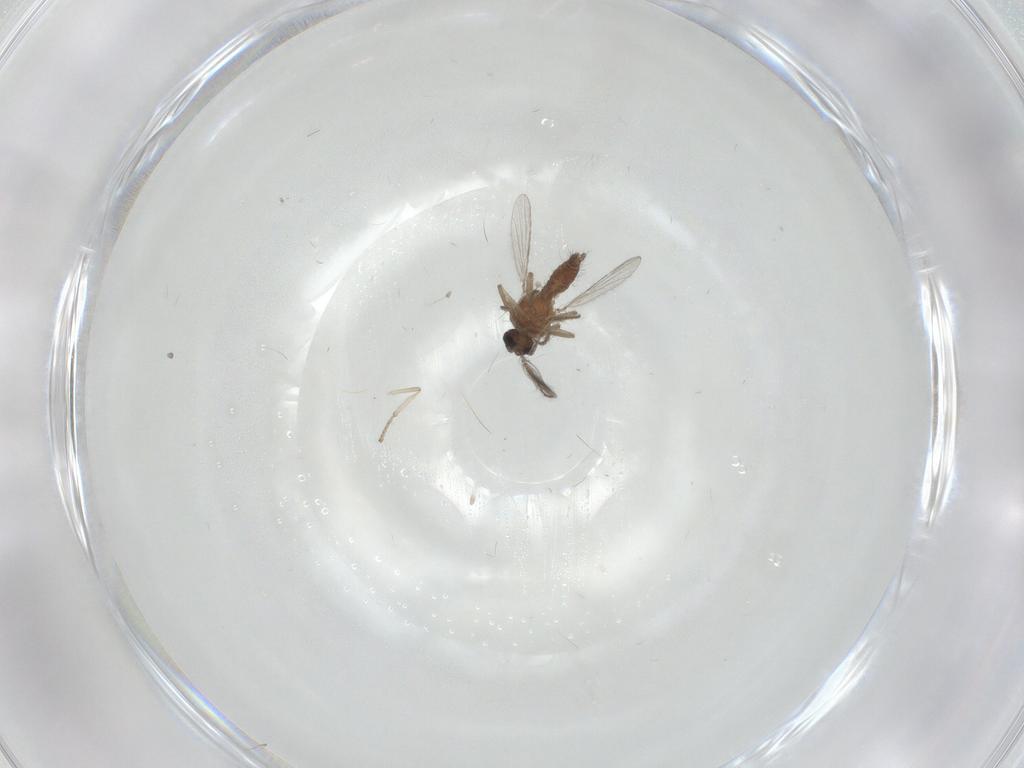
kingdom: Animalia
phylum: Arthropoda
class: Insecta
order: Diptera
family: Ceratopogonidae
